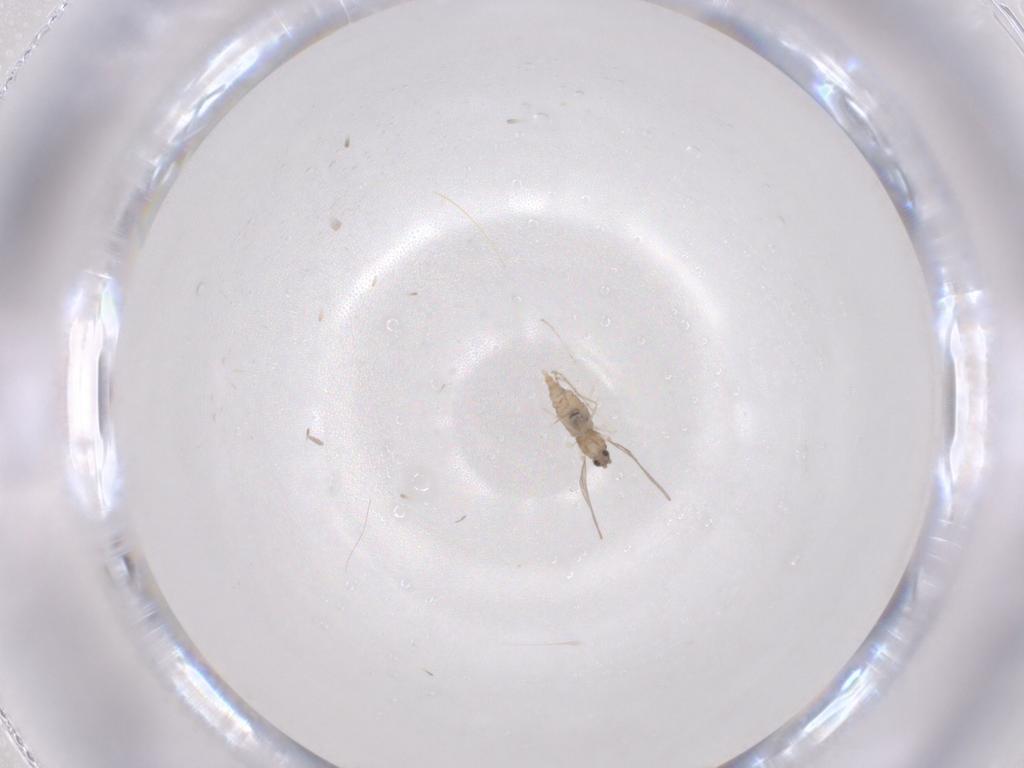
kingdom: Animalia
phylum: Arthropoda
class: Insecta
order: Diptera
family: Cecidomyiidae
